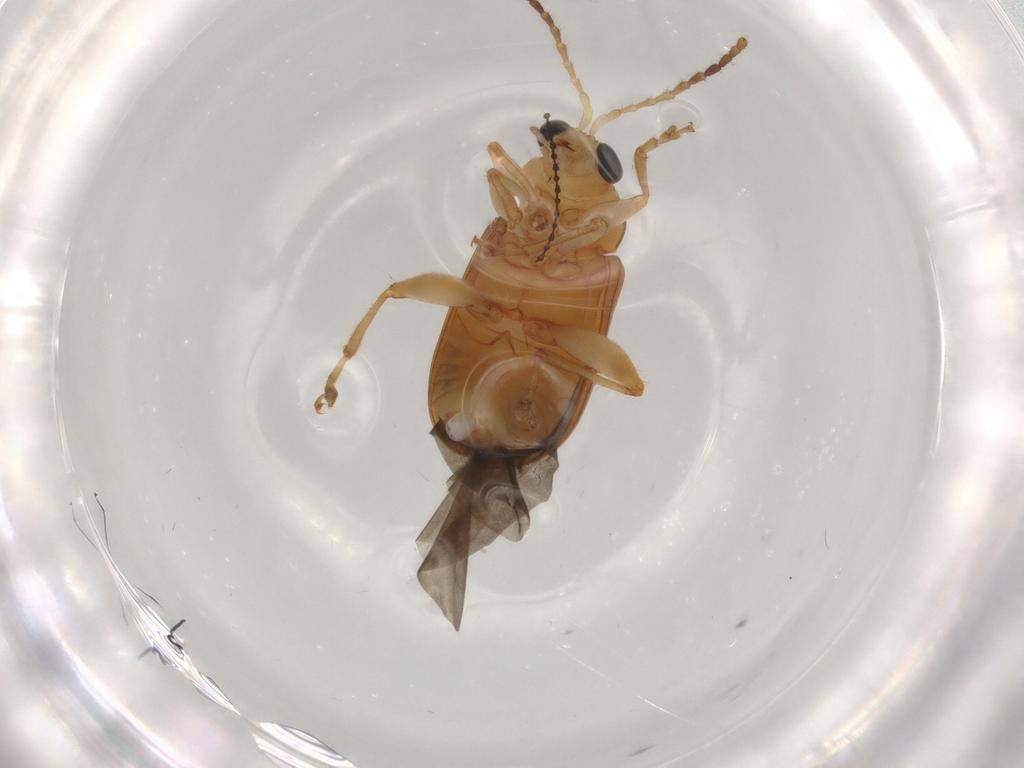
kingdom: Animalia
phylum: Arthropoda
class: Insecta
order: Coleoptera
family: Chrysomelidae
